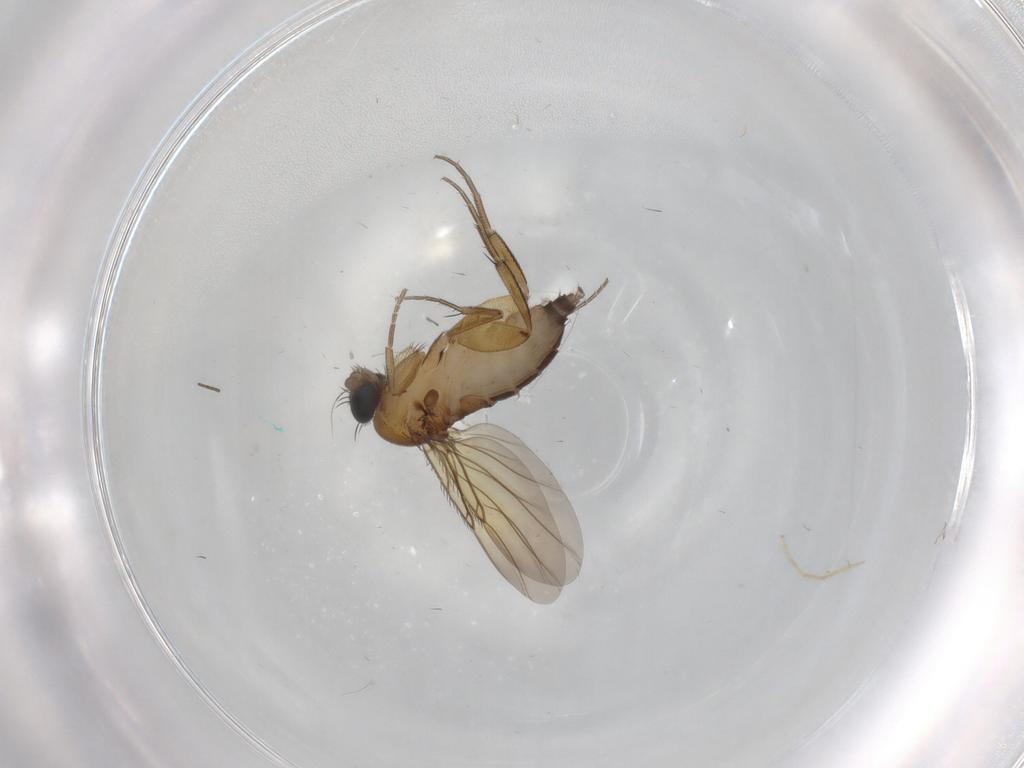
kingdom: Animalia
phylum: Arthropoda
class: Insecta
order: Diptera
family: Phoridae
